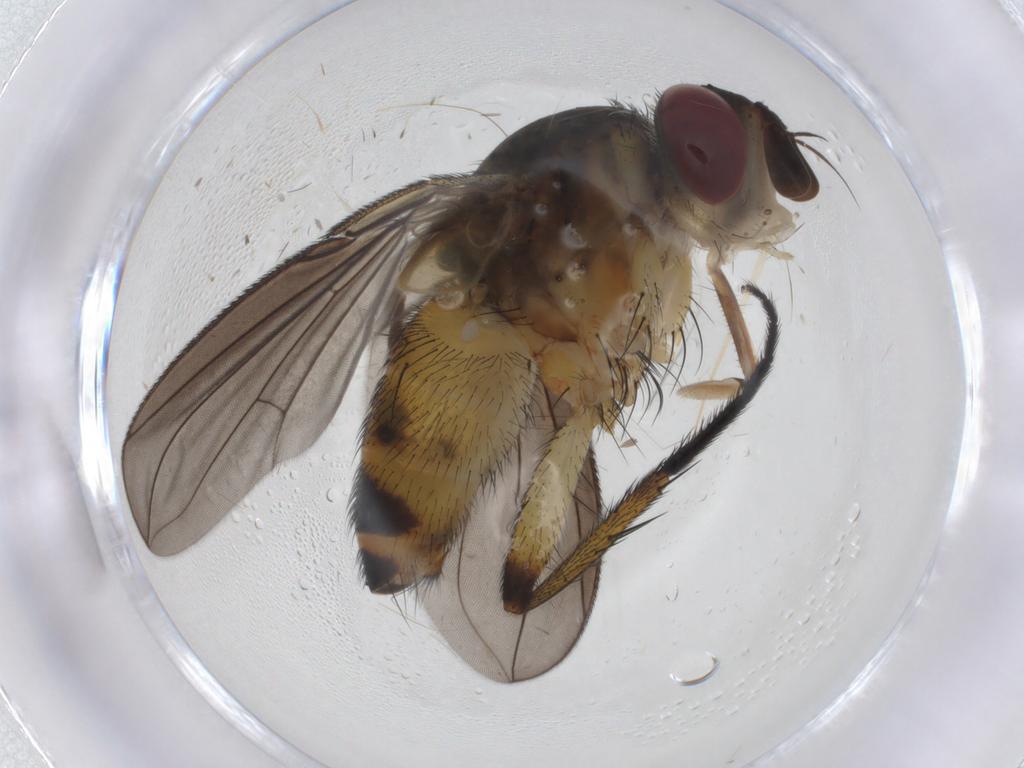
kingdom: Animalia
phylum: Arthropoda
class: Insecta
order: Diptera
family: Tachinidae
